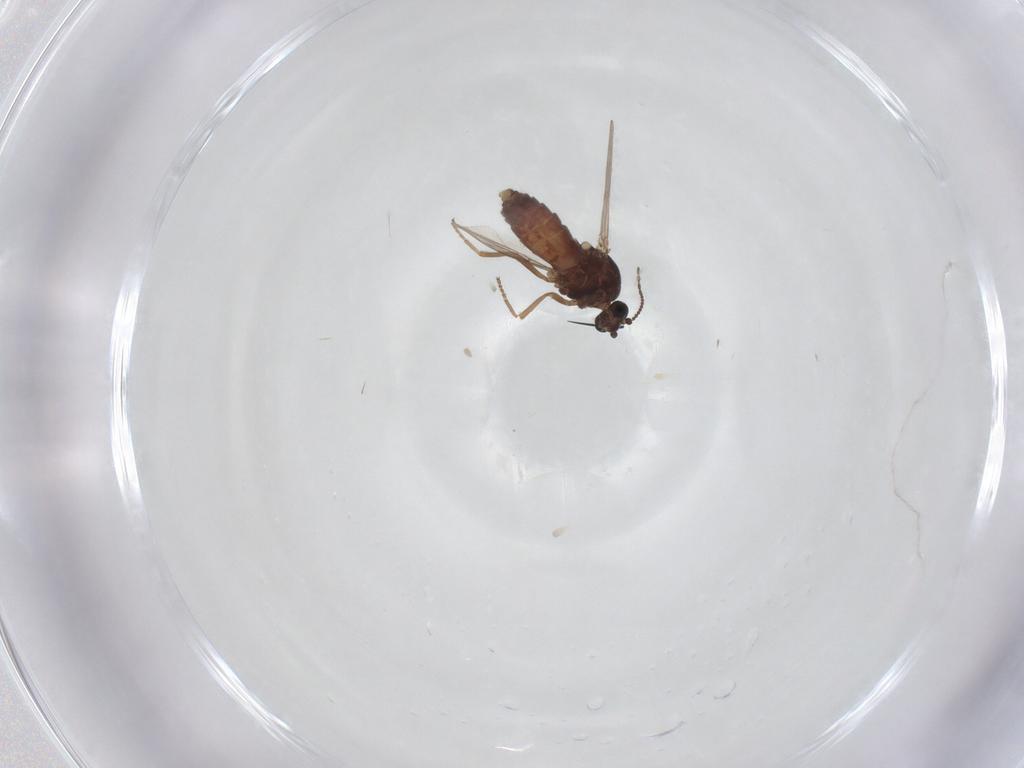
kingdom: Animalia
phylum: Arthropoda
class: Insecta
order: Diptera
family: Ceratopogonidae
